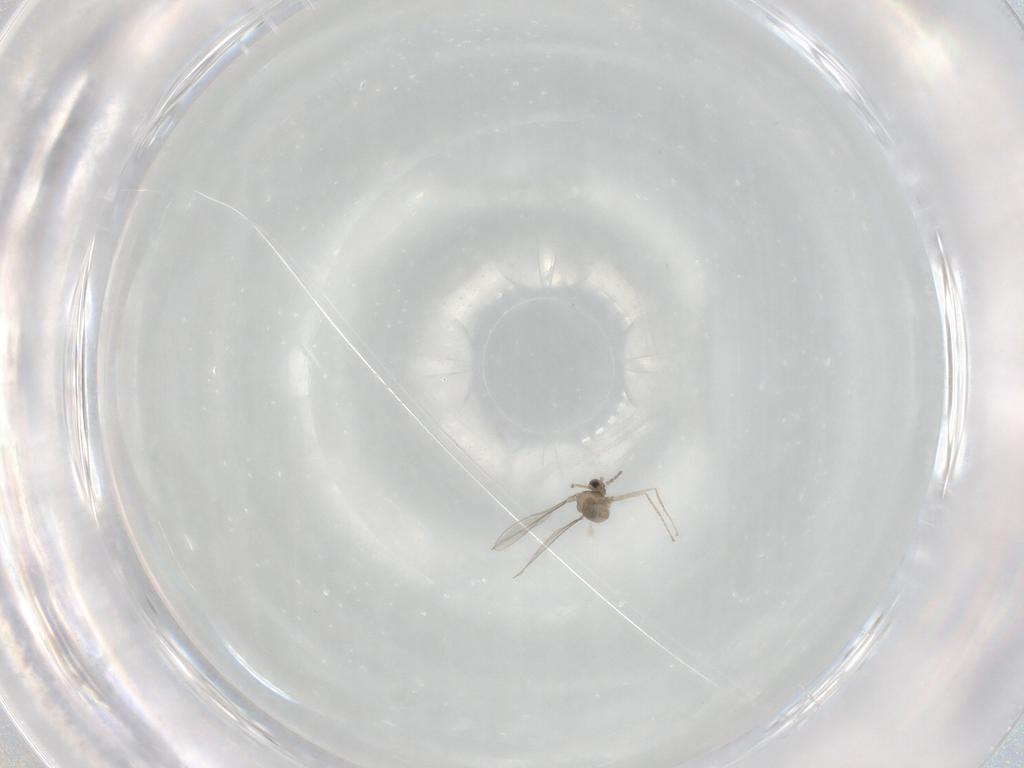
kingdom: Animalia
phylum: Arthropoda
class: Insecta
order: Diptera
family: Cecidomyiidae
